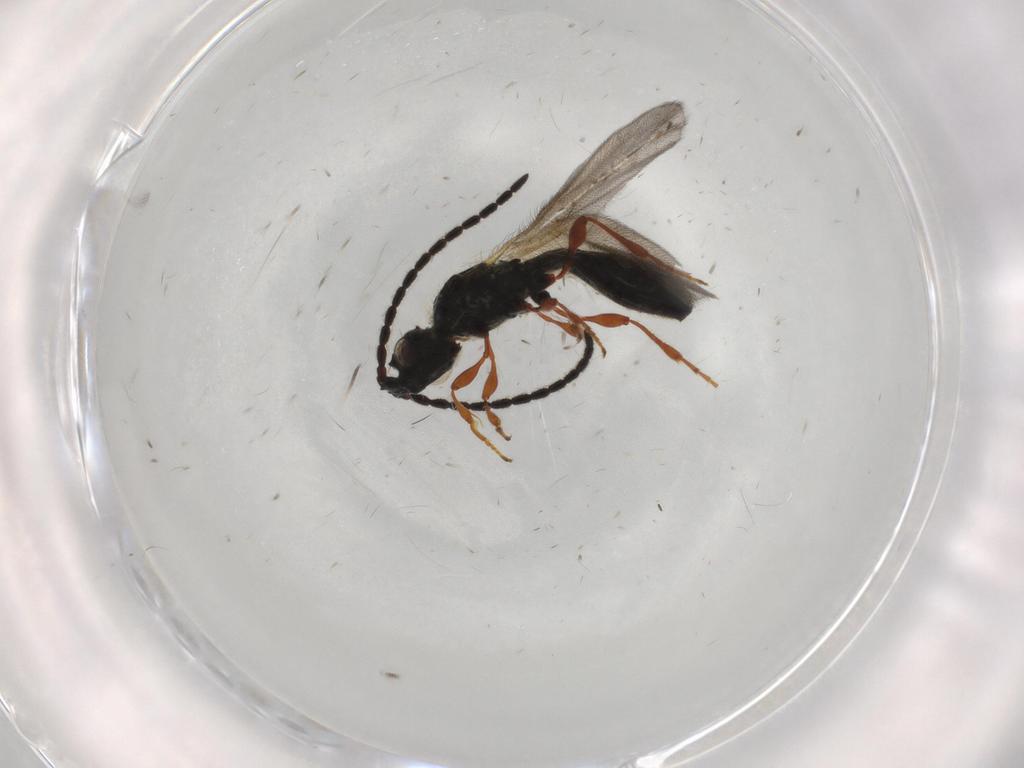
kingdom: Animalia
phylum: Arthropoda
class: Insecta
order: Hymenoptera
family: Diapriidae
